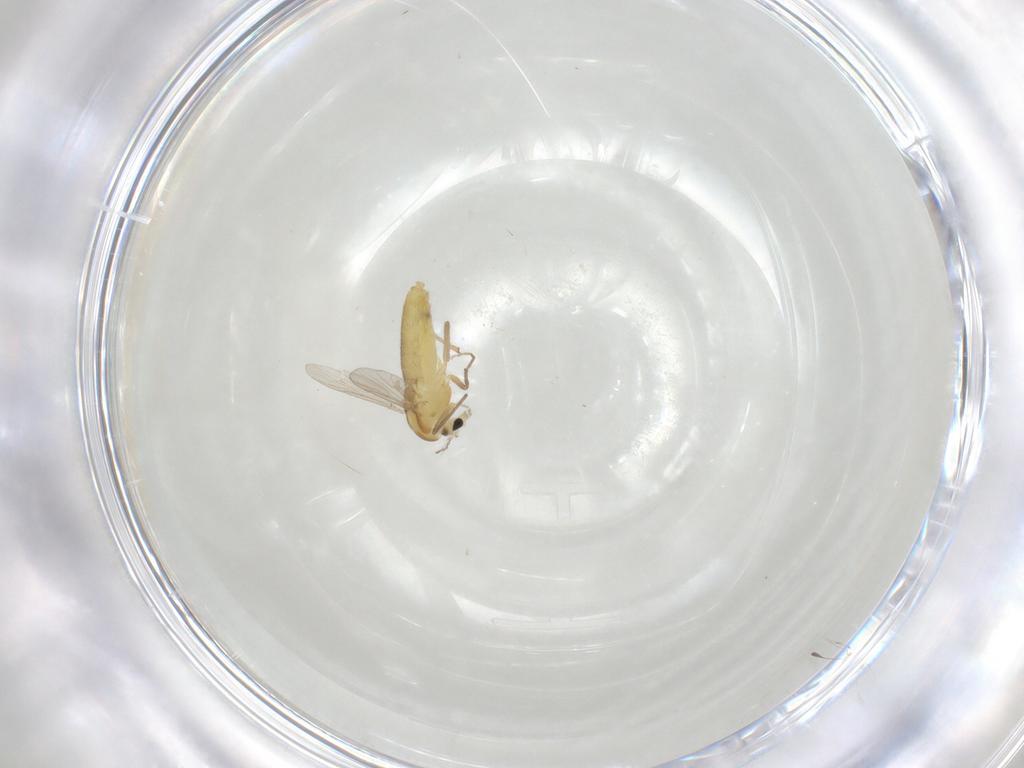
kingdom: Animalia
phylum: Arthropoda
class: Insecta
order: Diptera
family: Chironomidae
